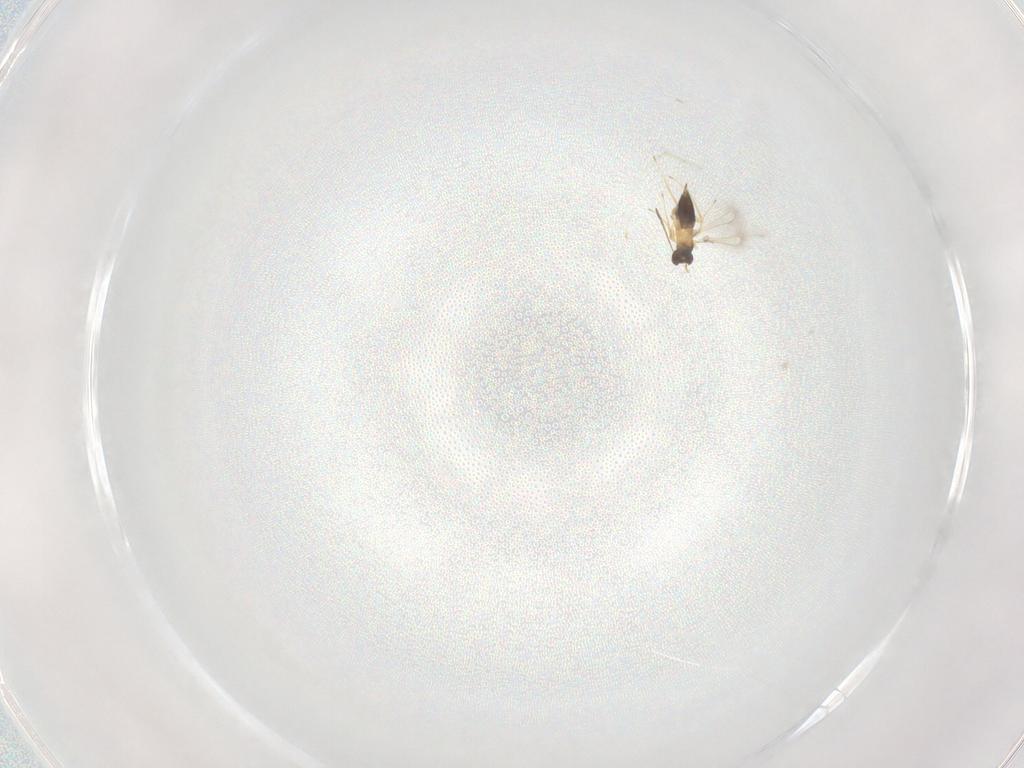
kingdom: Animalia
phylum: Arthropoda
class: Insecta
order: Hymenoptera
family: Mymaridae
